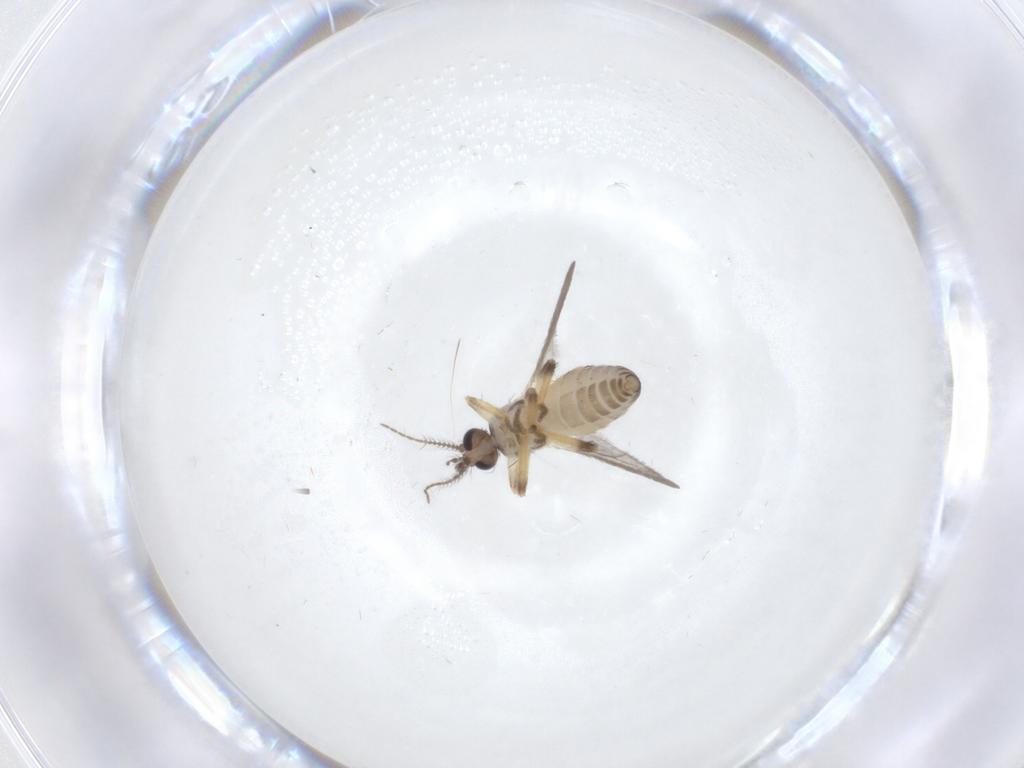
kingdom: Animalia
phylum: Arthropoda
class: Insecta
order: Diptera
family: Ceratopogonidae
